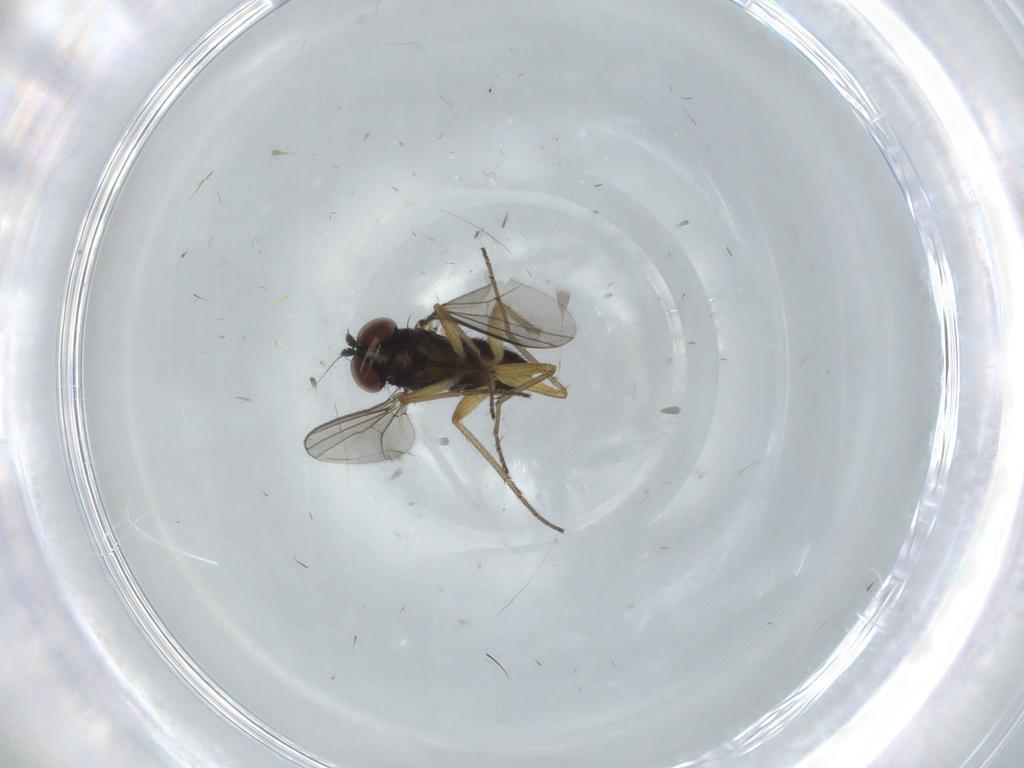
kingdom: Animalia
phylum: Arthropoda
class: Insecta
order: Diptera
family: Dolichopodidae
